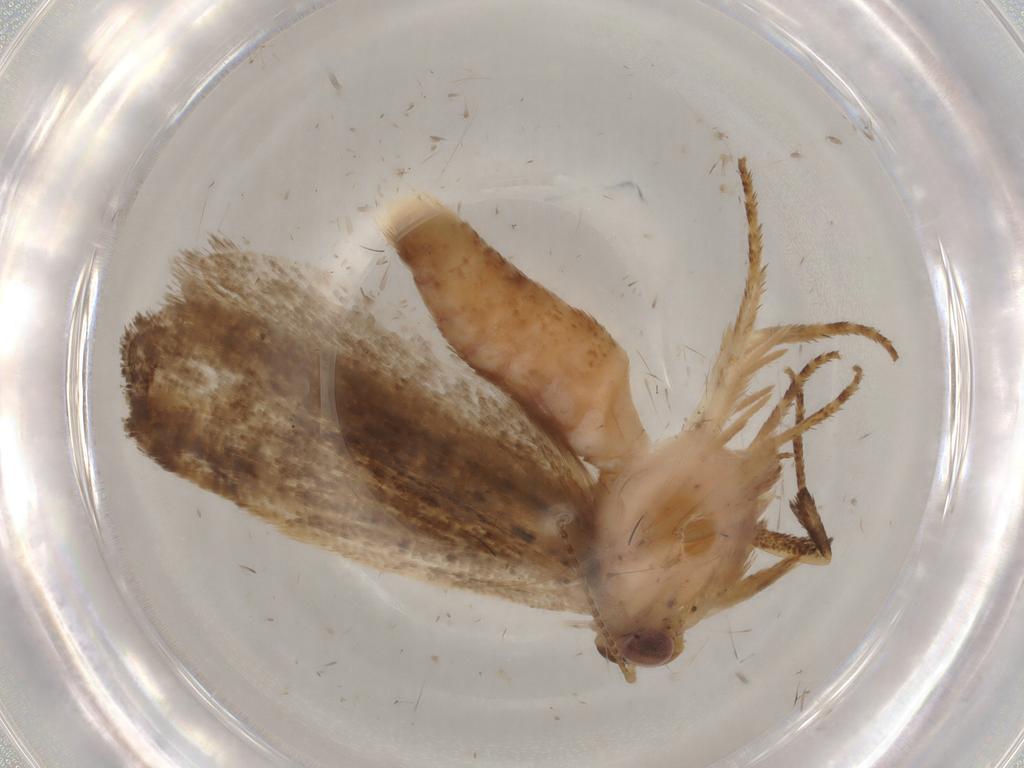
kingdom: Animalia
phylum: Arthropoda
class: Insecta
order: Lepidoptera
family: Gelechiidae
